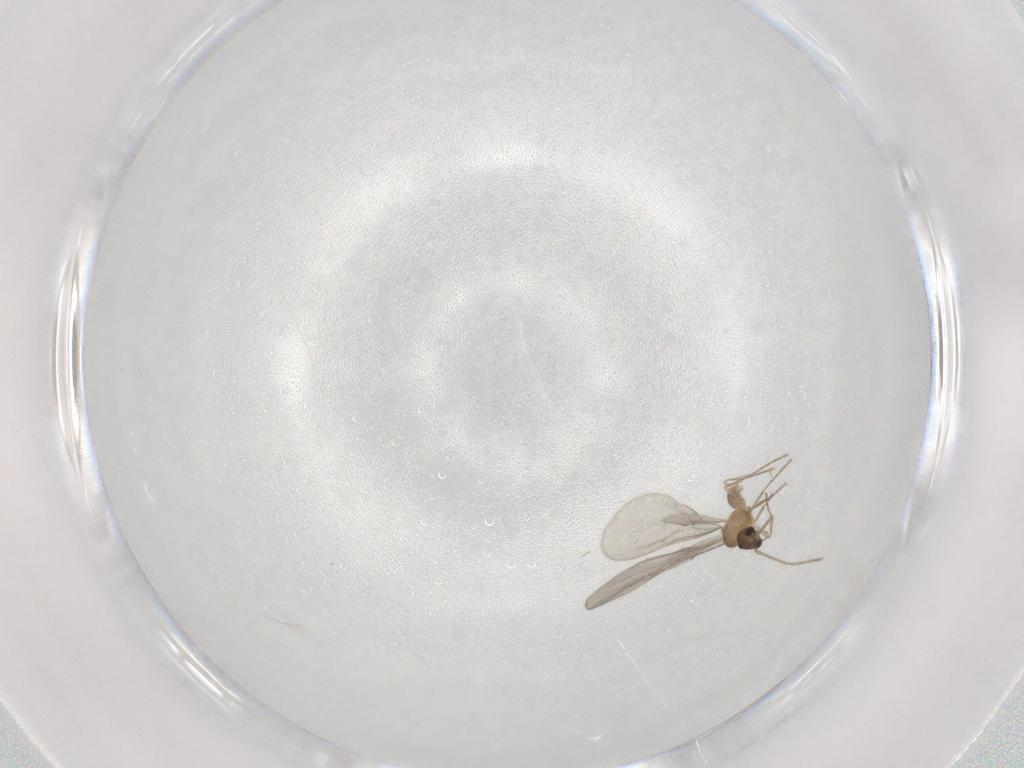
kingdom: Animalia
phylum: Arthropoda
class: Insecta
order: Hymenoptera
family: Formicidae
